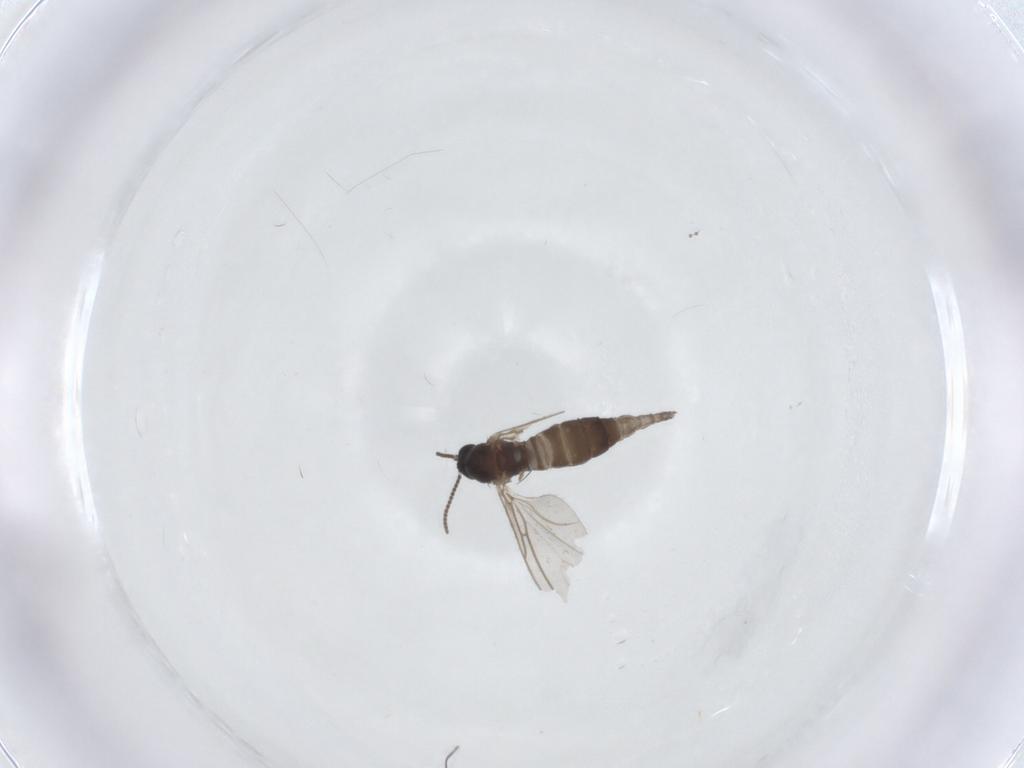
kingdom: Animalia
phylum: Arthropoda
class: Insecta
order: Diptera
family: Sciaridae
